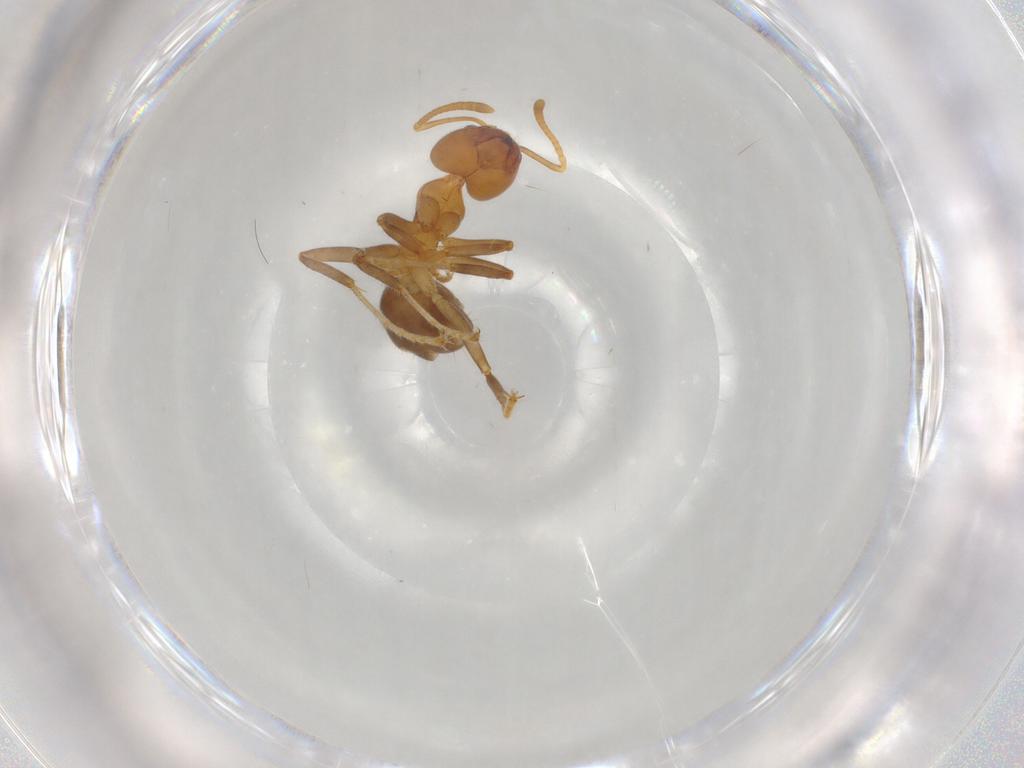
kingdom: Animalia
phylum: Arthropoda
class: Insecta
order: Hymenoptera
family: Formicidae
